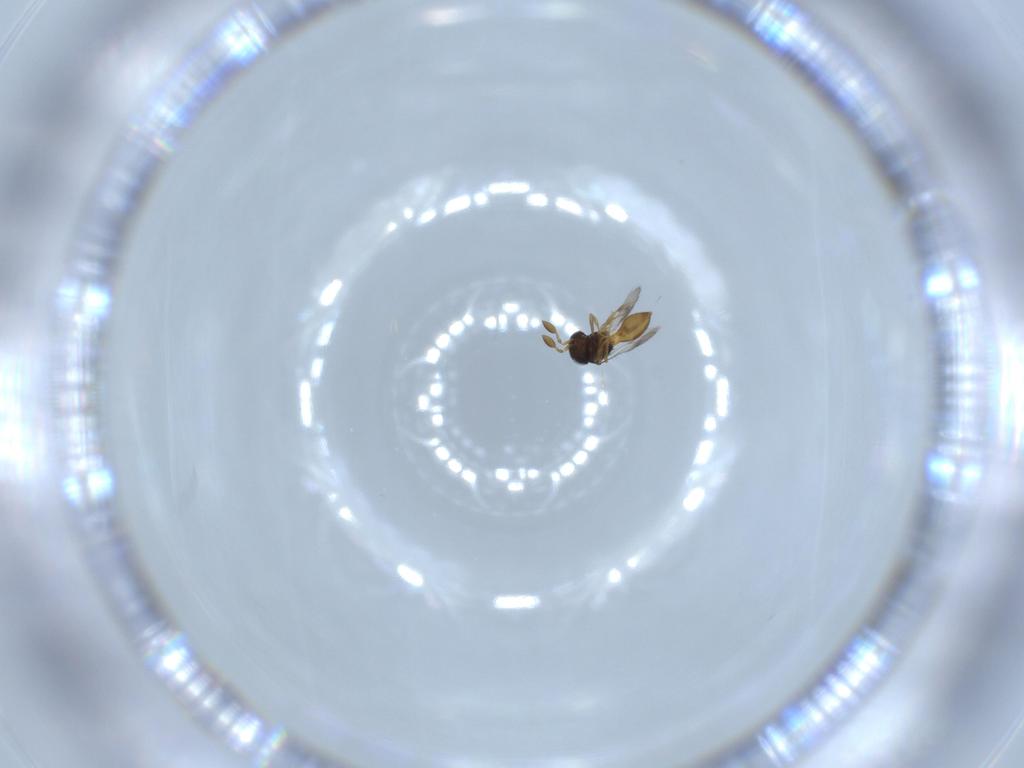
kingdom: Animalia
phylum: Arthropoda
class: Insecta
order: Hymenoptera
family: Scelionidae
